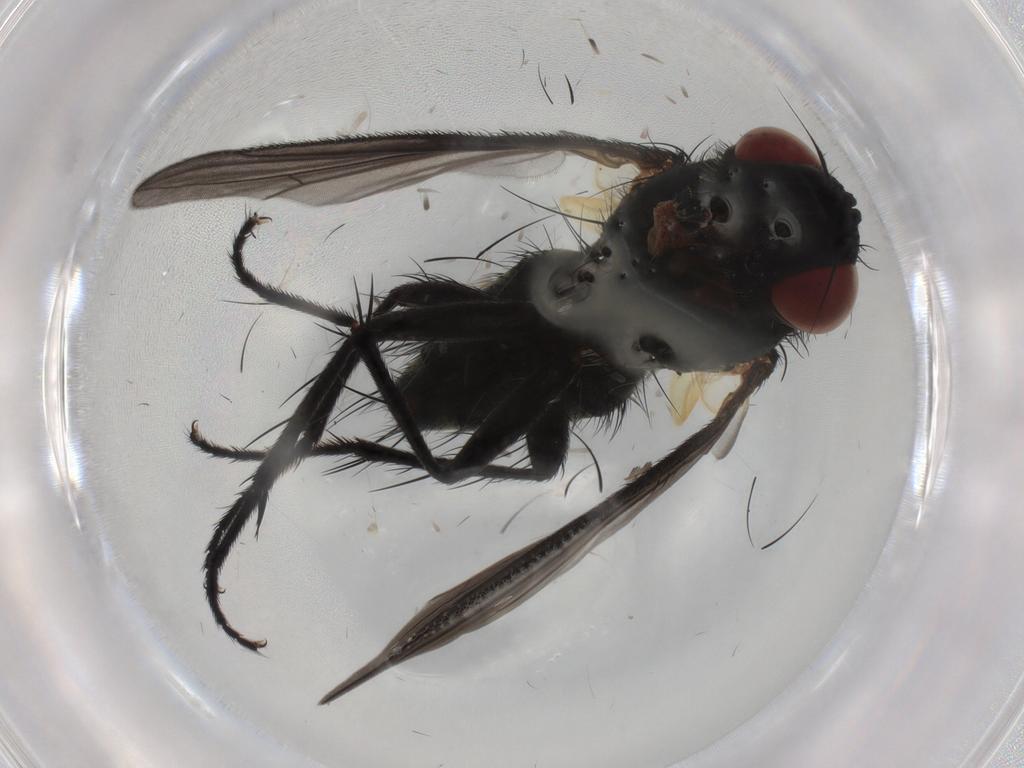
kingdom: Animalia
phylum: Arthropoda
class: Insecta
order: Diptera
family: Tachinidae
